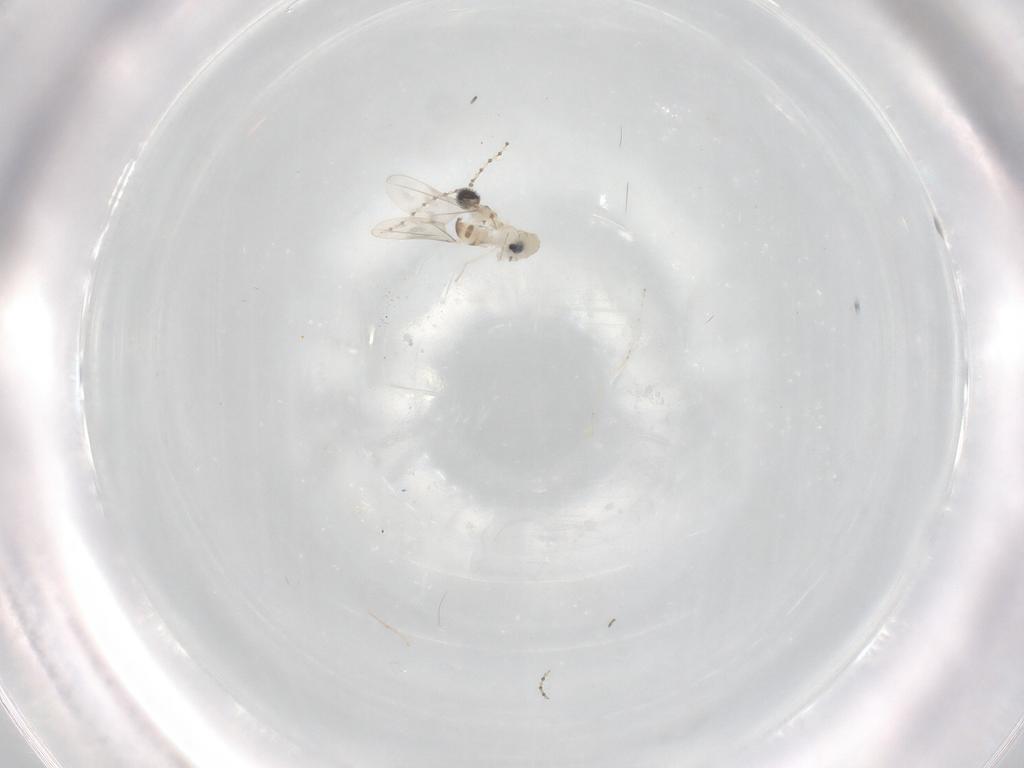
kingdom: Animalia
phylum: Arthropoda
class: Insecta
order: Diptera
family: Cecidomyiidae
